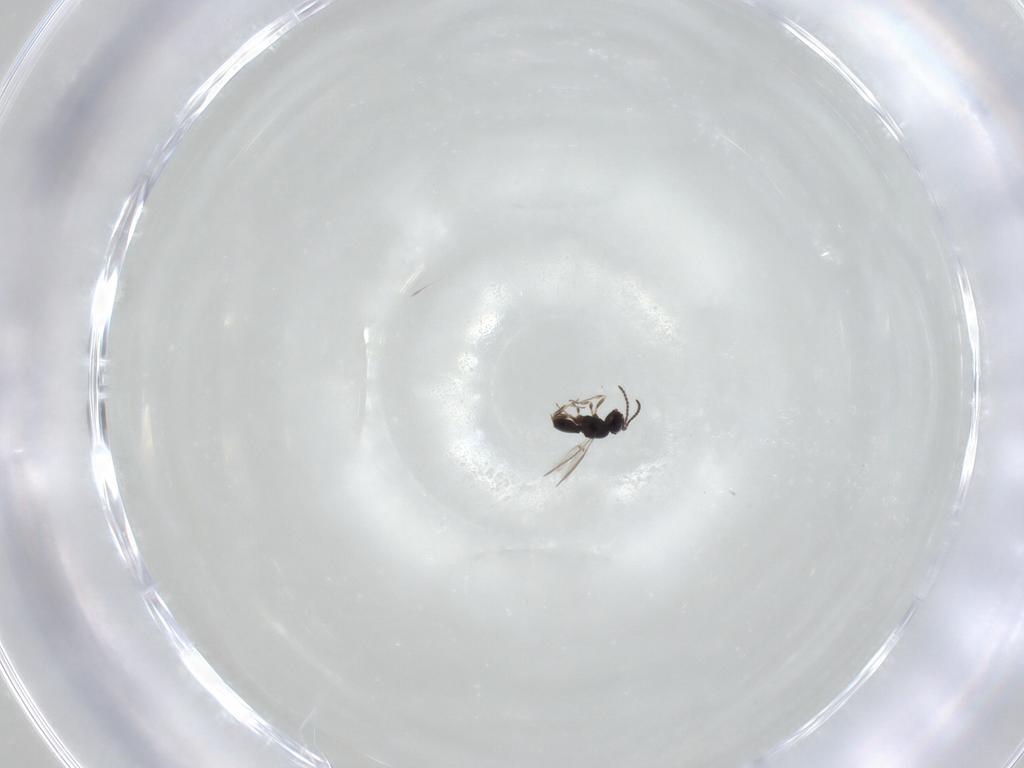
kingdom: Animalia
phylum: Arthropoda
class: Insecta
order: Hymenoptera
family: Scelionidae
